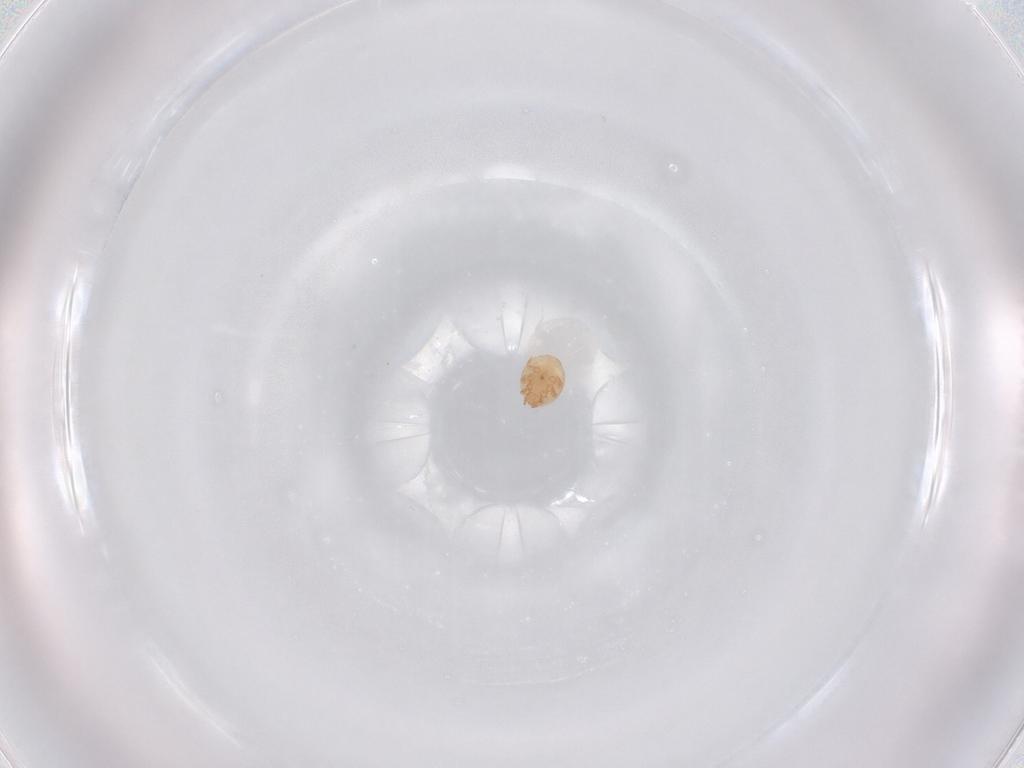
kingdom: Animalia
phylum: Arthropoda
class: Arachnida
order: Mesostigmata
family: Trematuridae
